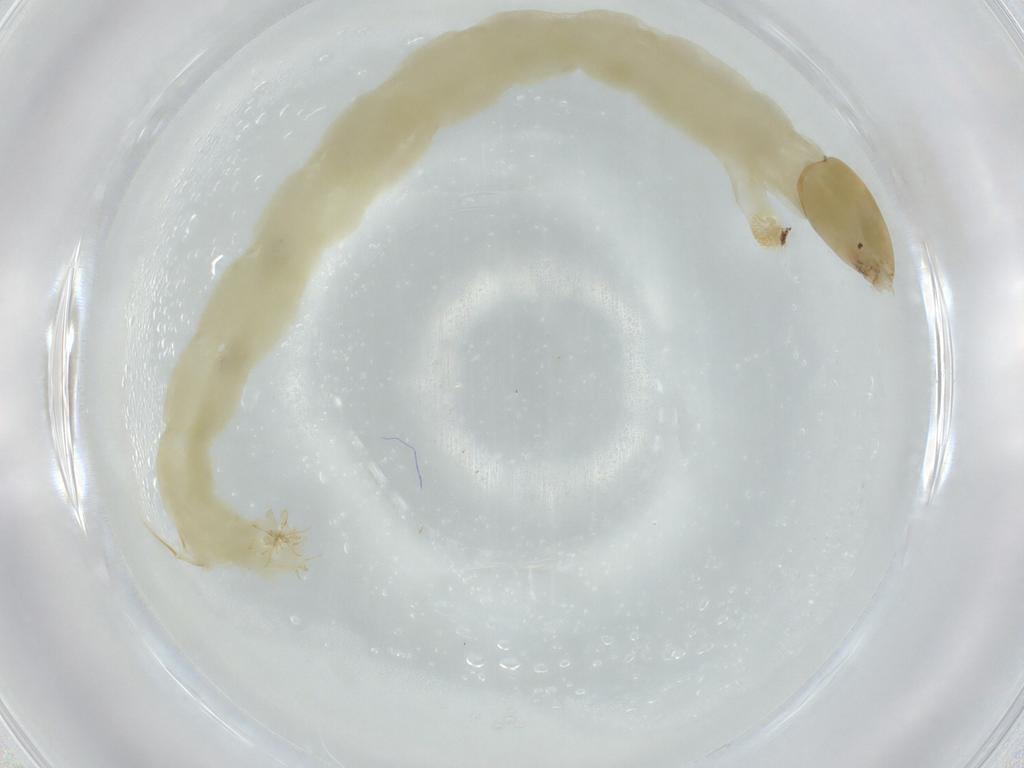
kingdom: Animalia
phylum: Arthropoda
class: Insecta
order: Diptera
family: Chironomidae
